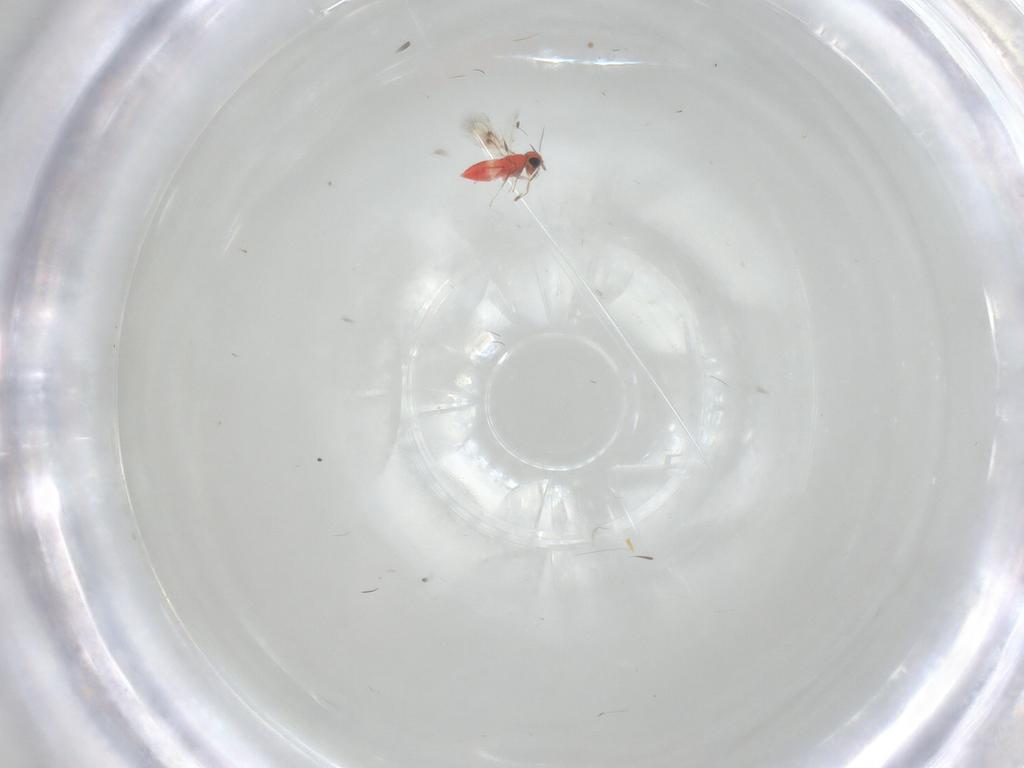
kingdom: Animalia
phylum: Arthropoda
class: Insecta
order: Hymenoptera
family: Trichogrammatidae
